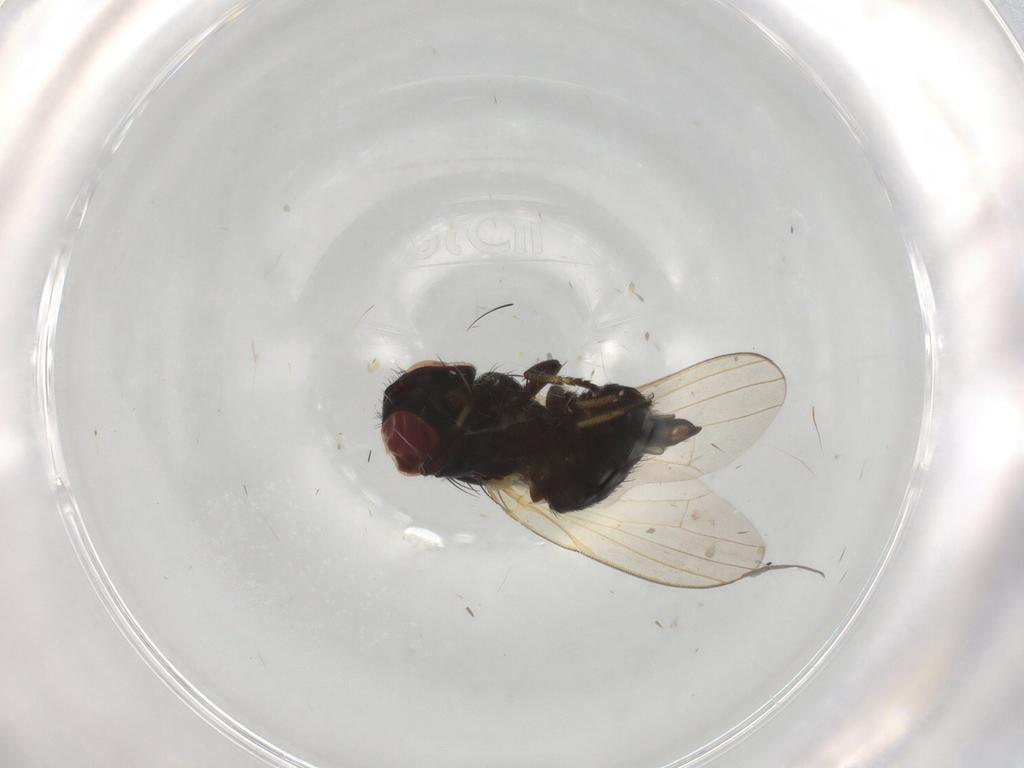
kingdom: Animalia
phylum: Arthropoda
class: Insecta
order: Diptera
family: Lonchaeidae
